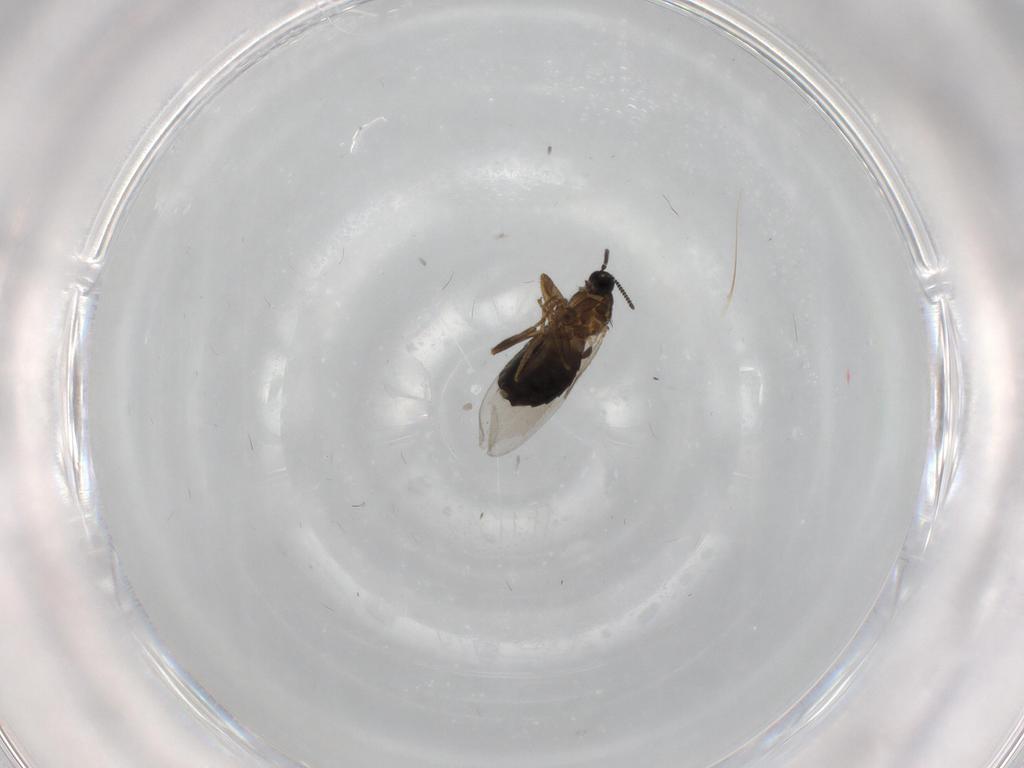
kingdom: Animalia
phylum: Arthropoda
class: Insecta
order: Diptera
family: Scatopsidae
